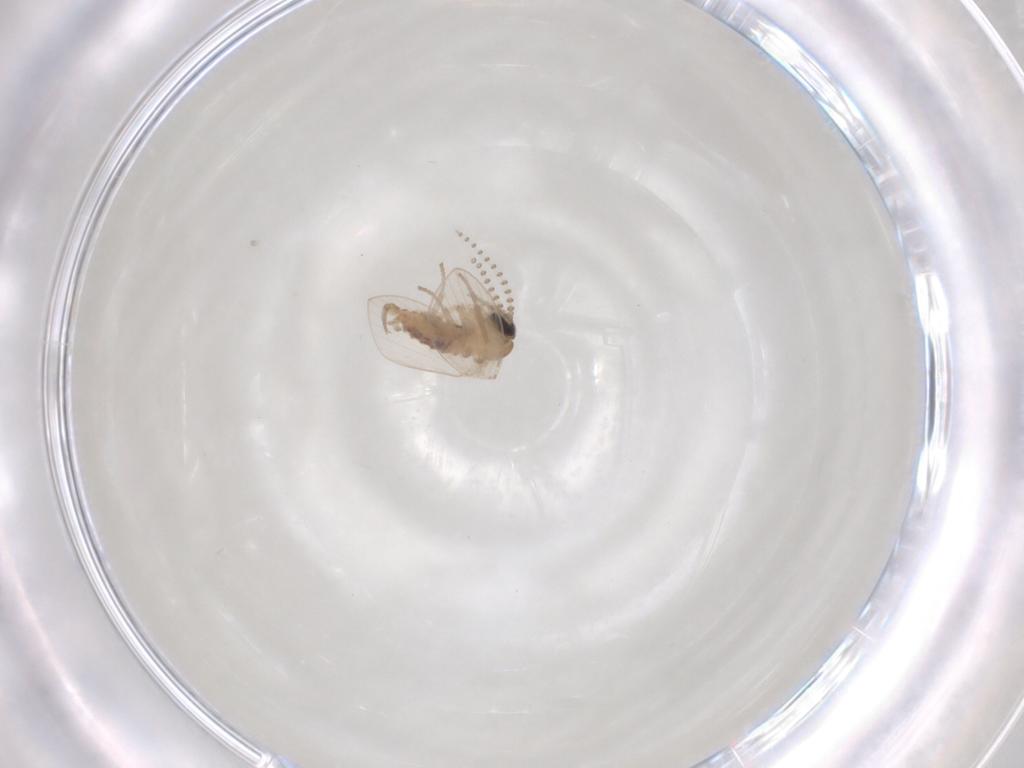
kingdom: Animalia
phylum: Arthropoda
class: Insecta
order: Diptera
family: Psychodidae
